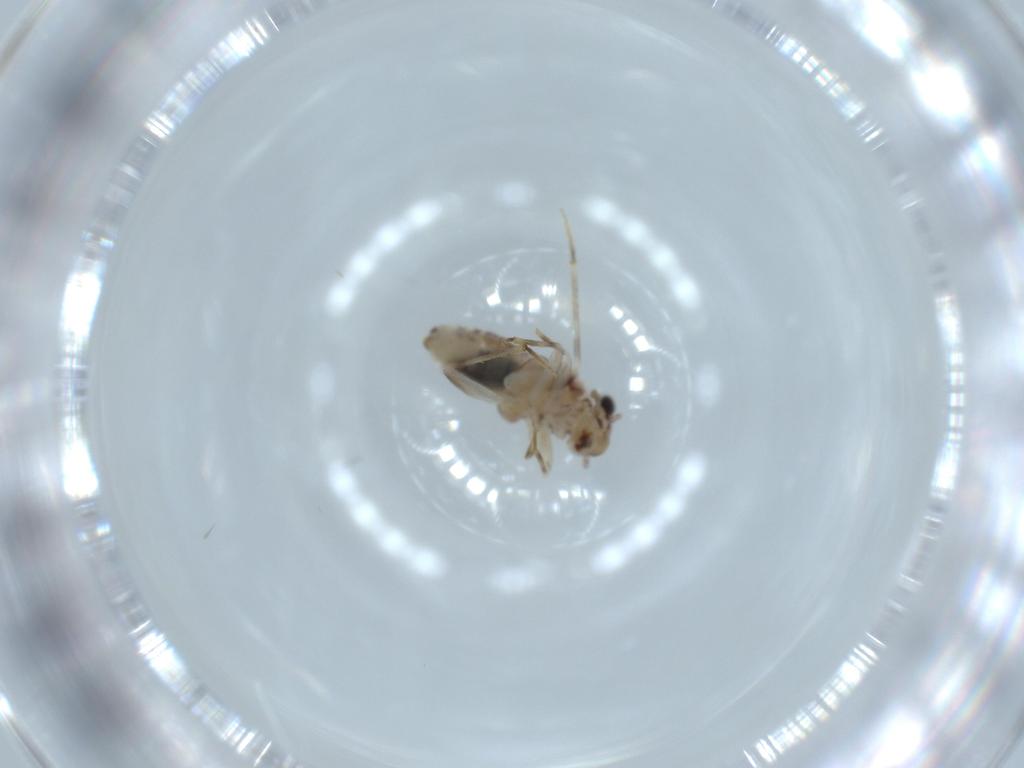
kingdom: Animalia
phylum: Arthropoda
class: Insecta
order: Psocodea
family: Lepidopsocidae
